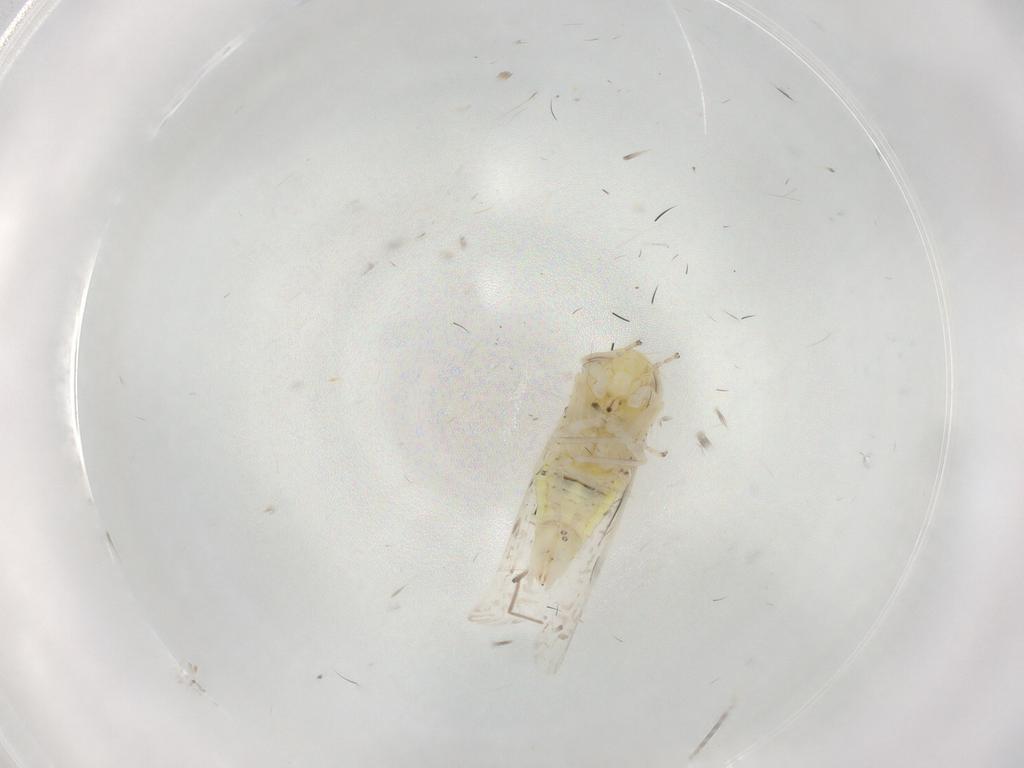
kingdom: Animalia
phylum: Arthropoda
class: Insecta
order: Hemiptera
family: Cicadellidae
